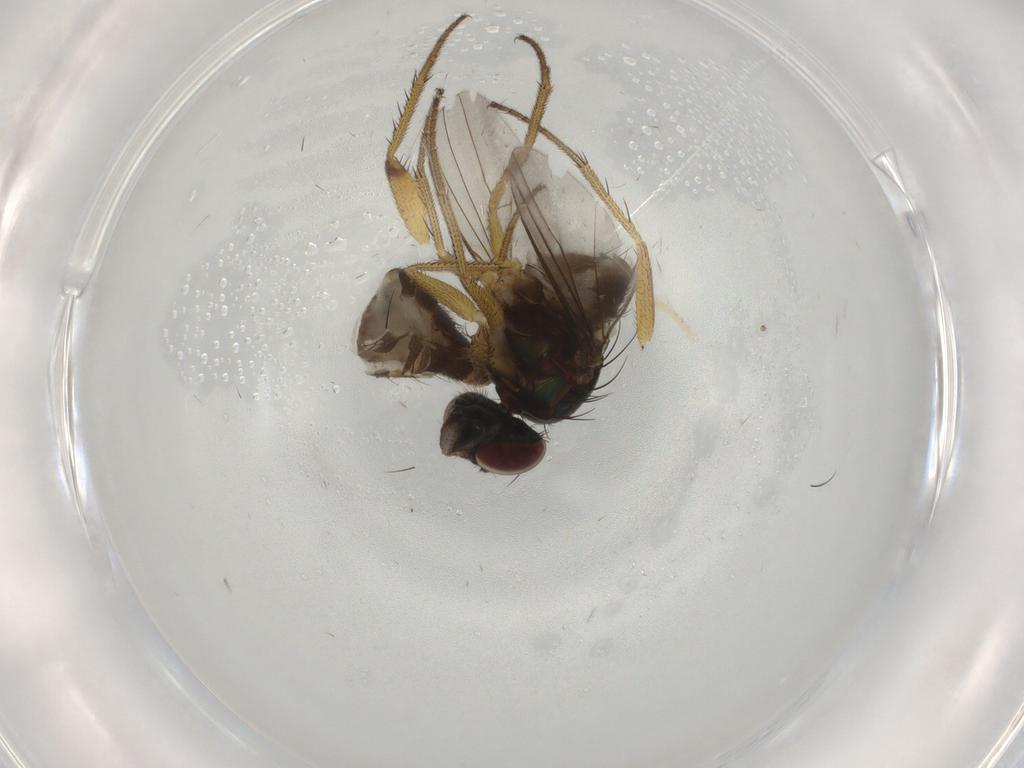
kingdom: Animalia
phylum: Arthropoda
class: Insecta
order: Diptera
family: Dolichopodidae
